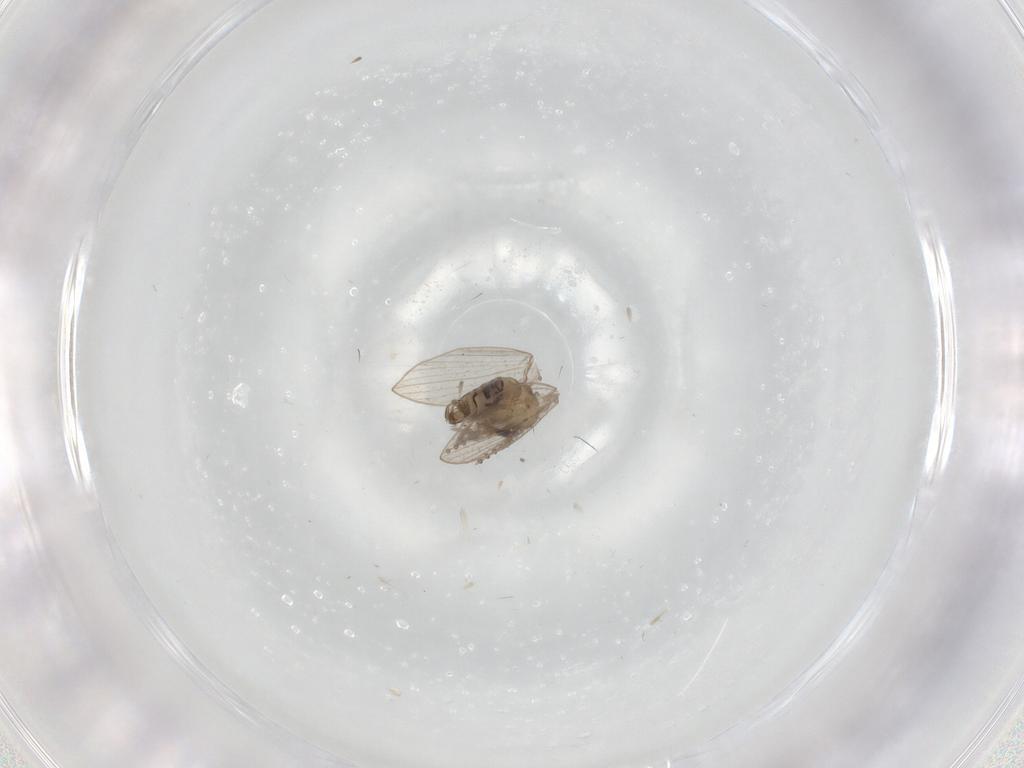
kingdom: Animalia
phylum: Arthropoda
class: Insecta
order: Diptera
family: Psychodidae
